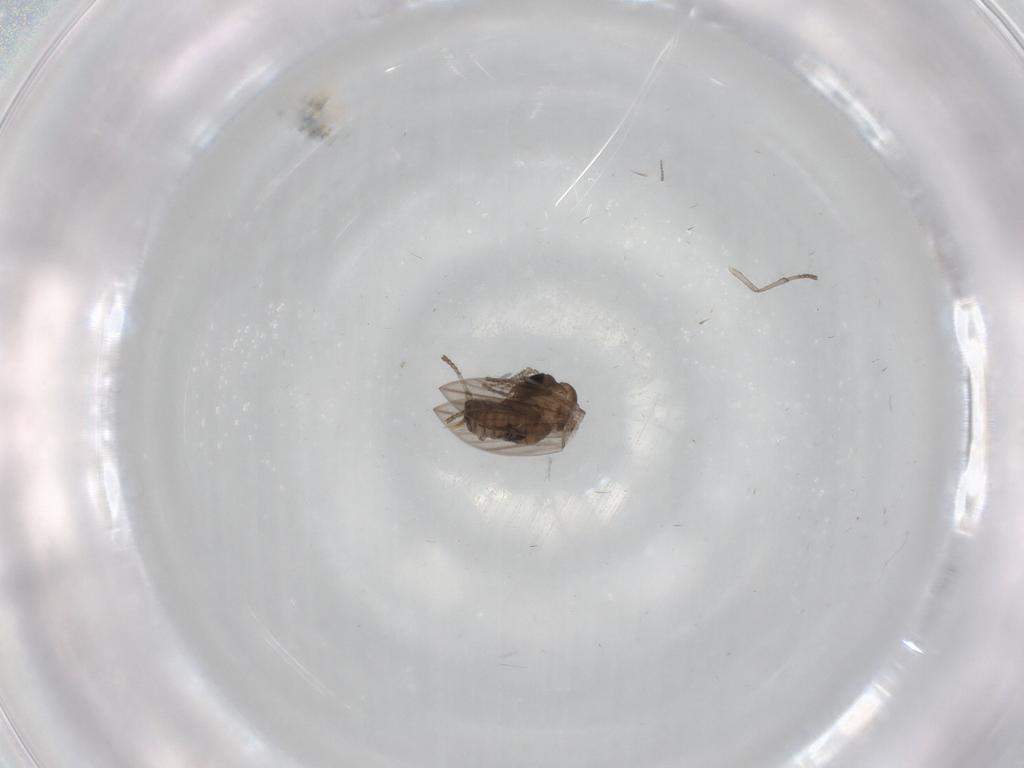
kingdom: Animalia
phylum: Arthropoda
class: Insecta
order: Diptera
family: Psychodidae
